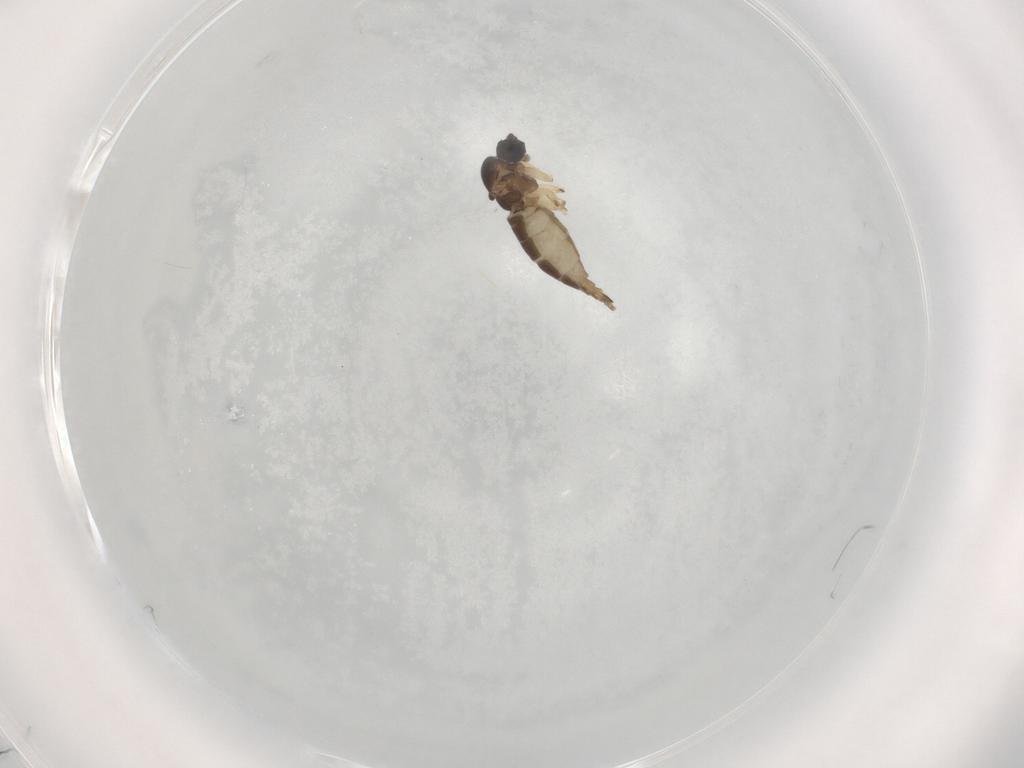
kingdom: Animalia
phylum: Arthropoda
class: Insecta
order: Diptera
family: Sciaridae
